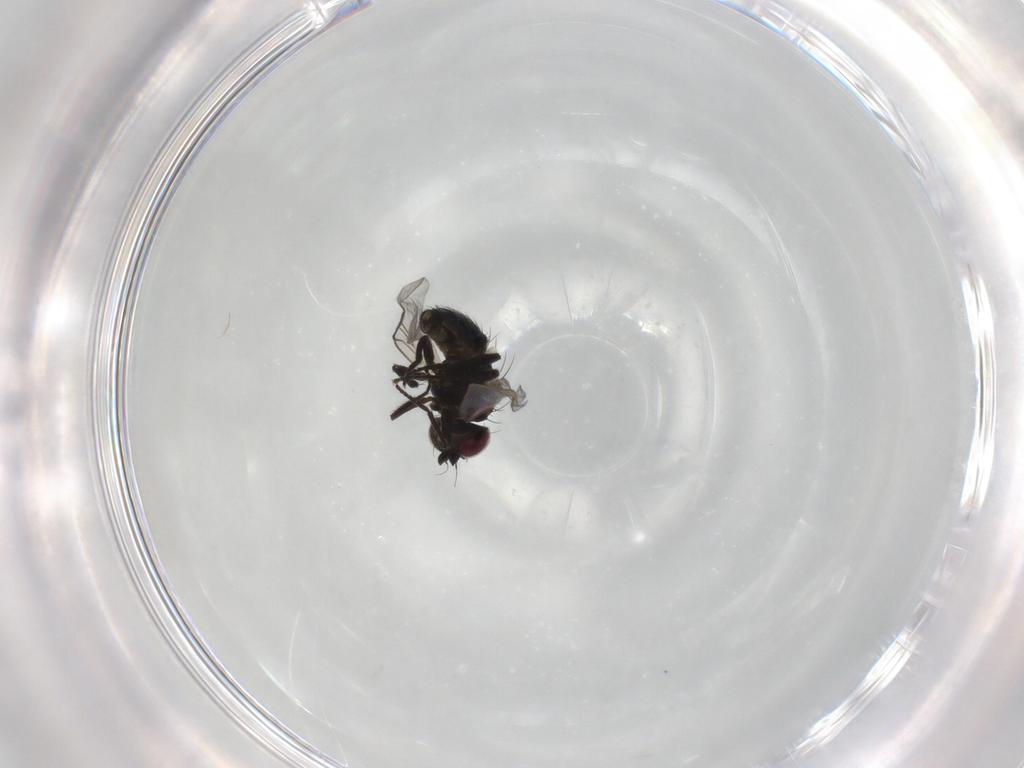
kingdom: Animalia
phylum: Arthropoda
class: Insecta
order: Diptera
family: Agromyzidae
